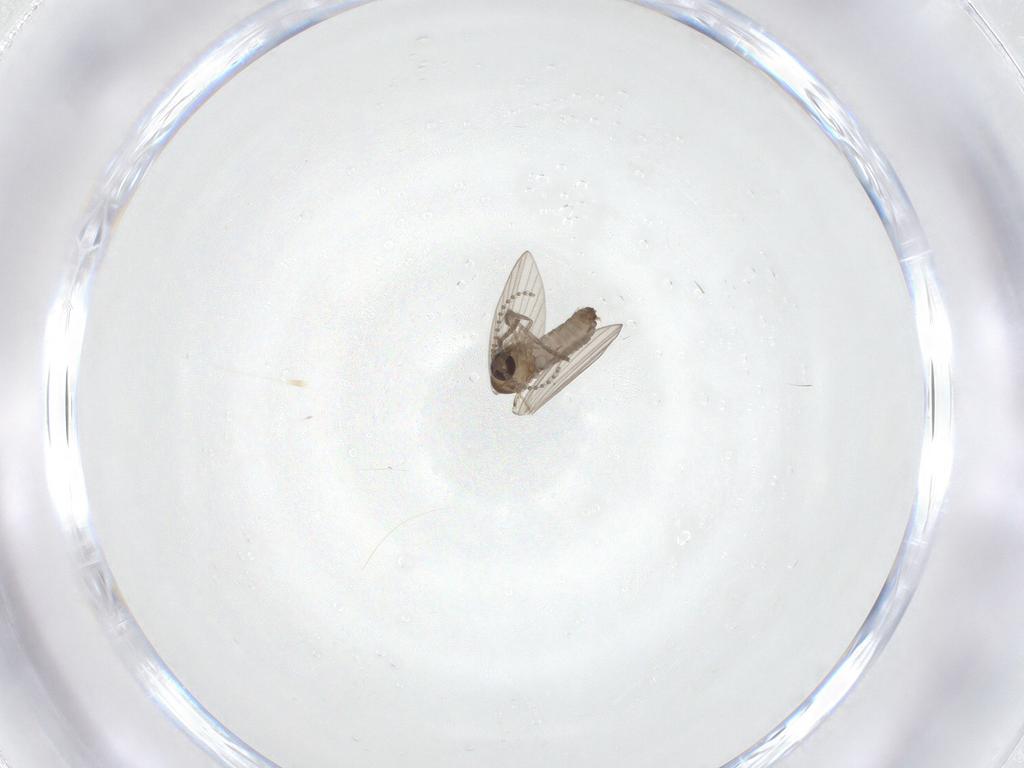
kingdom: Animalia
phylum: Arthropoda
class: Insecta
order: Diptera
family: Psychodidae
